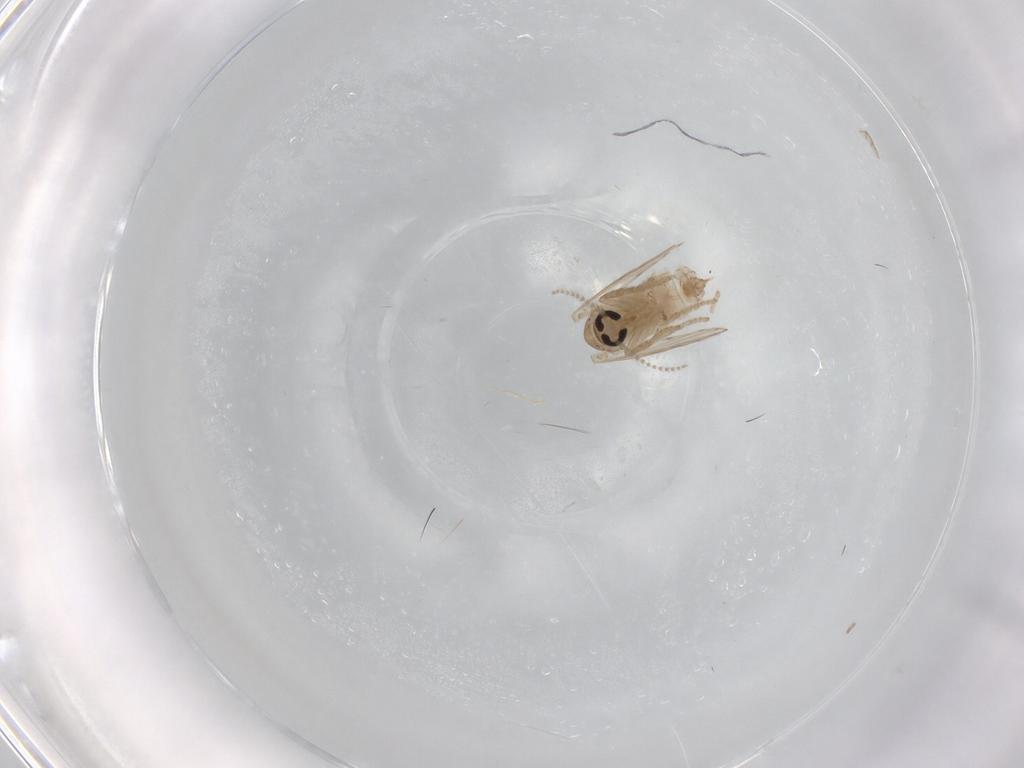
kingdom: Animalia
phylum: Arthropoda
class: Insecta
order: Diptera
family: Psychodidae
